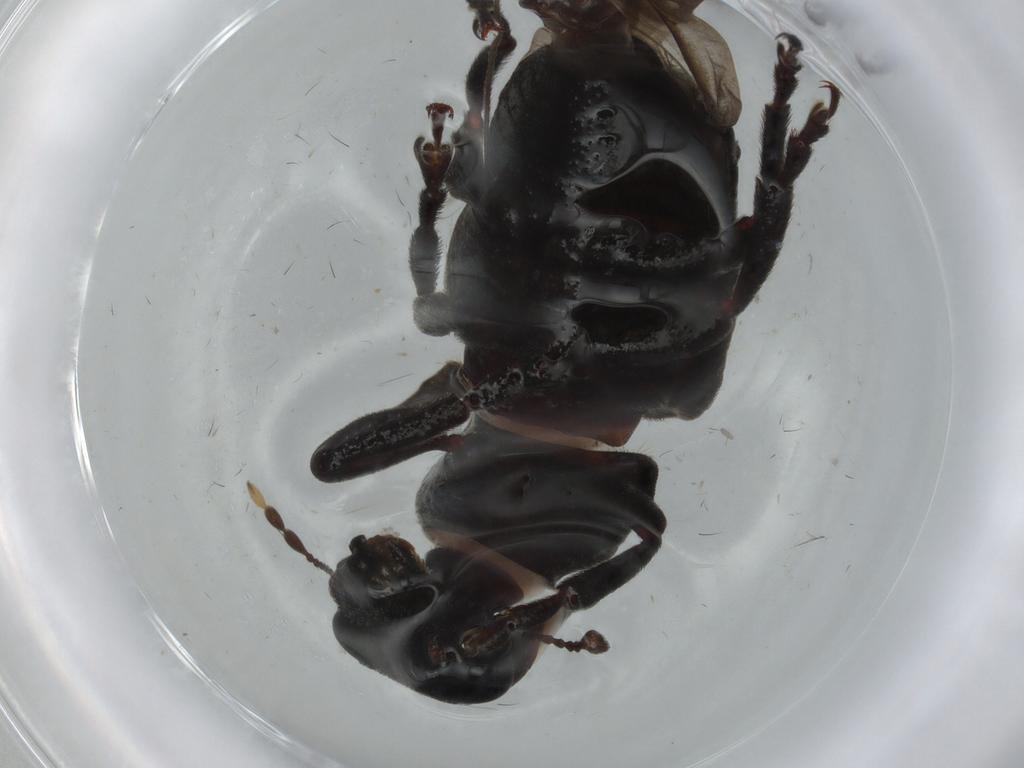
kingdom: Animalia
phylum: Arthropoda
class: Insecta
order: Coleoptera
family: Anthribidae
